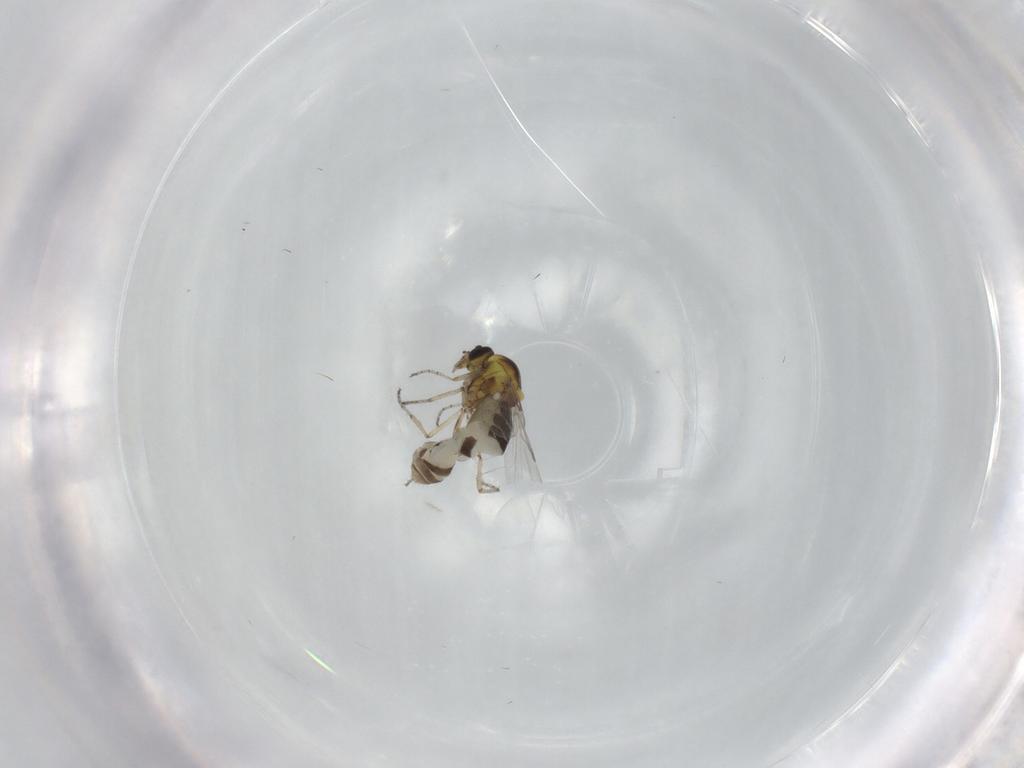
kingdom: Animalia
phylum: Arthropoda
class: Insecta
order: Diptera
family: Ceratopogonidae
